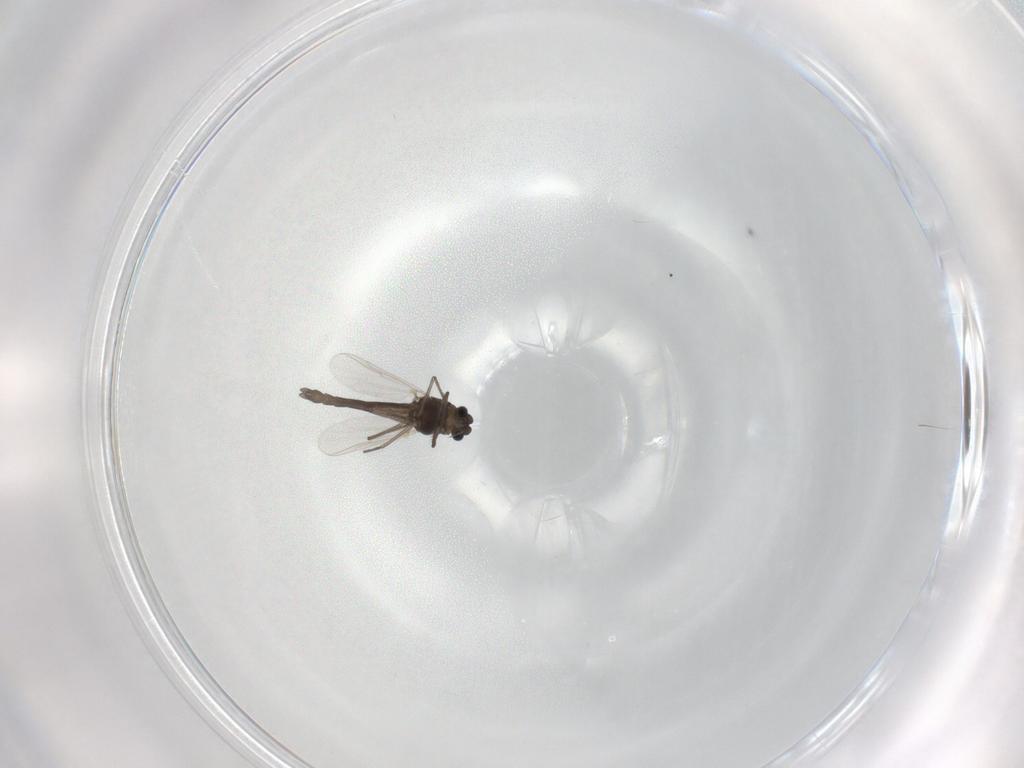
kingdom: Animalia
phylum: Arthropoda
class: Insecta
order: Diptera
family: Chironomidae
